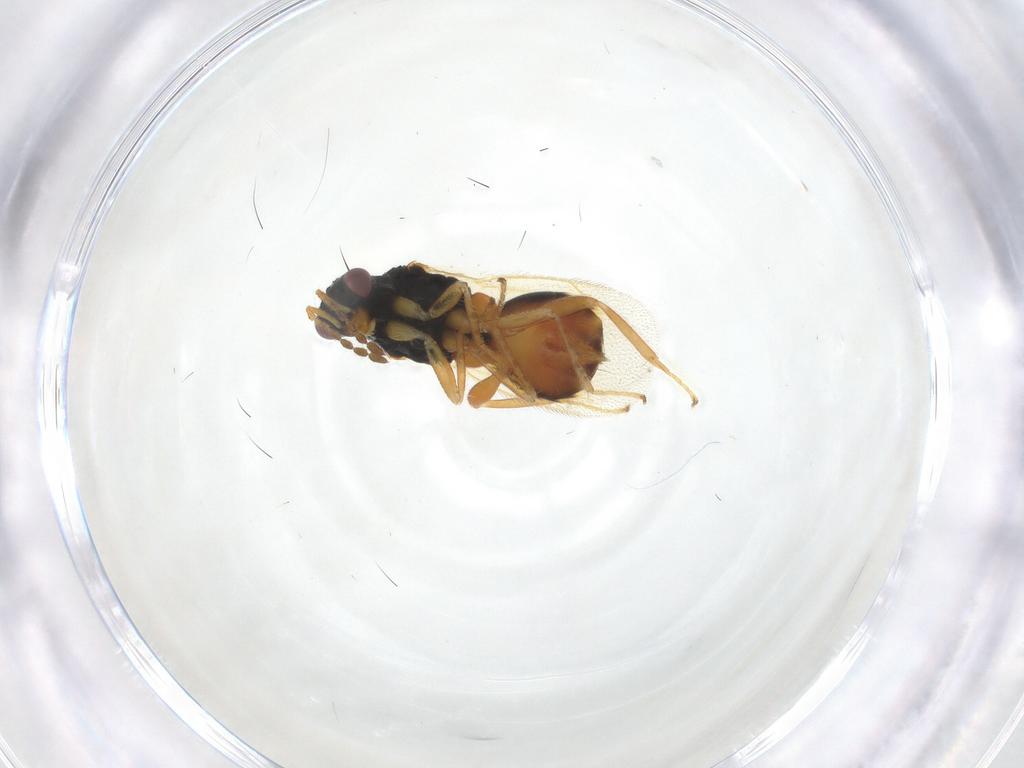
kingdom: Animalia
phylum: Arthropoda
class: Insecta
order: Hymenoptera
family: Eulophidae
